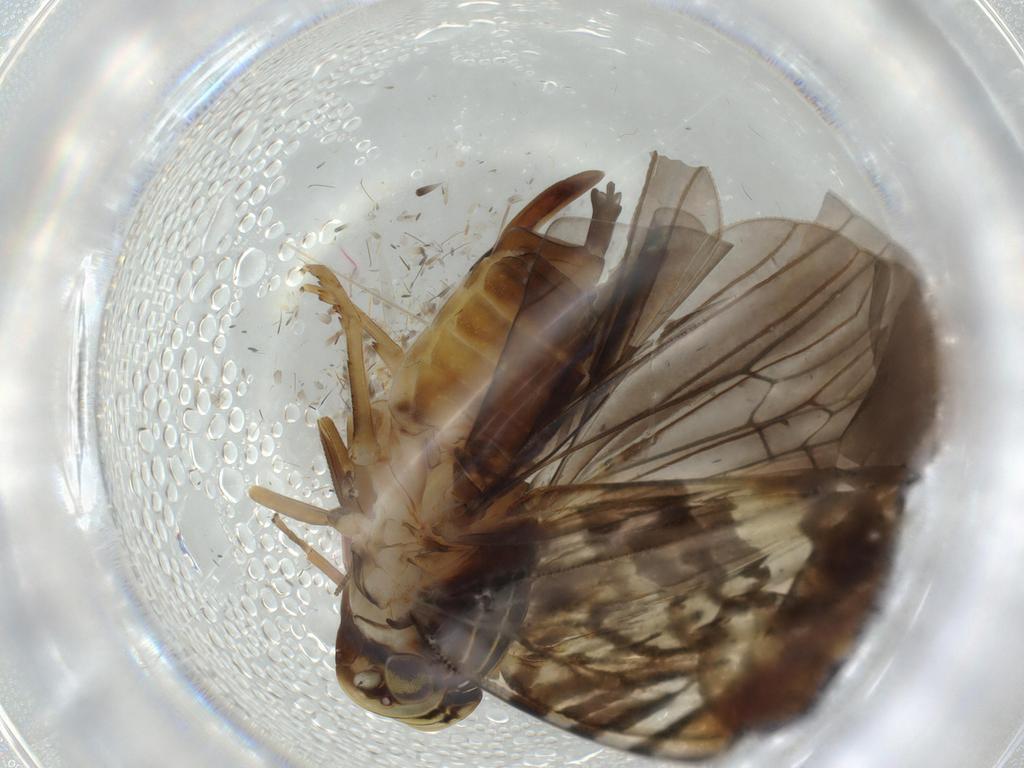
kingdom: Animalia
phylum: Arthropoda
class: Insecta
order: Hemiptera
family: Cixiidae
